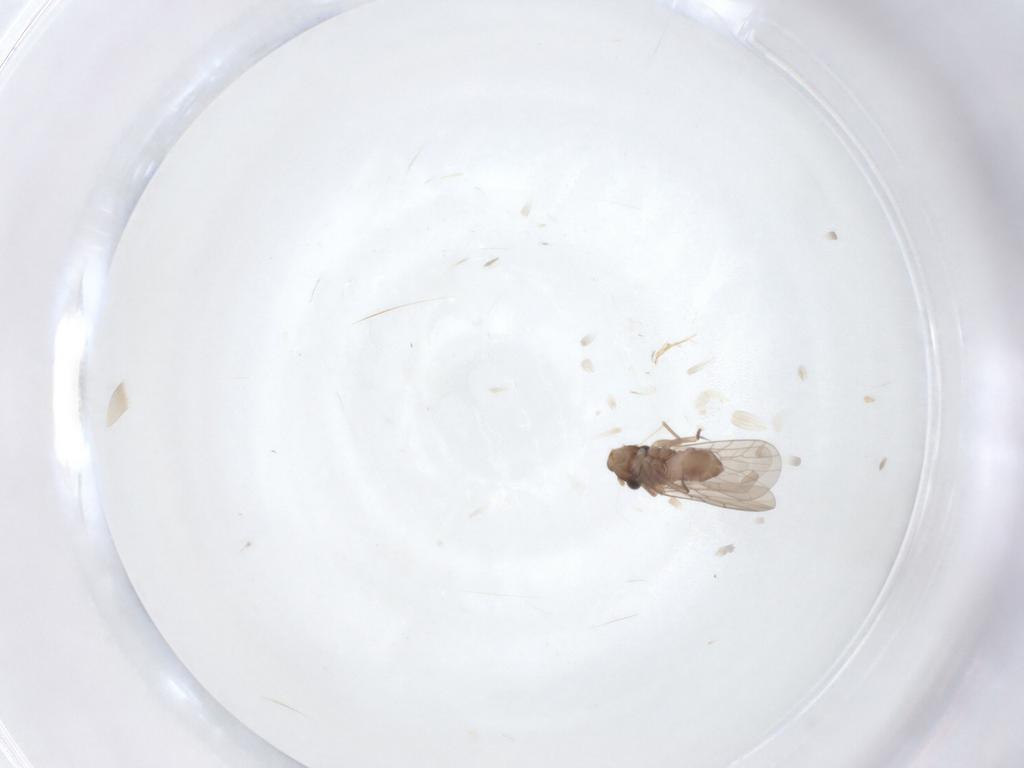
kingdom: Animalia
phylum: Arthropoda
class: Insecta
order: Psocodea
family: Lepidopsocidae
